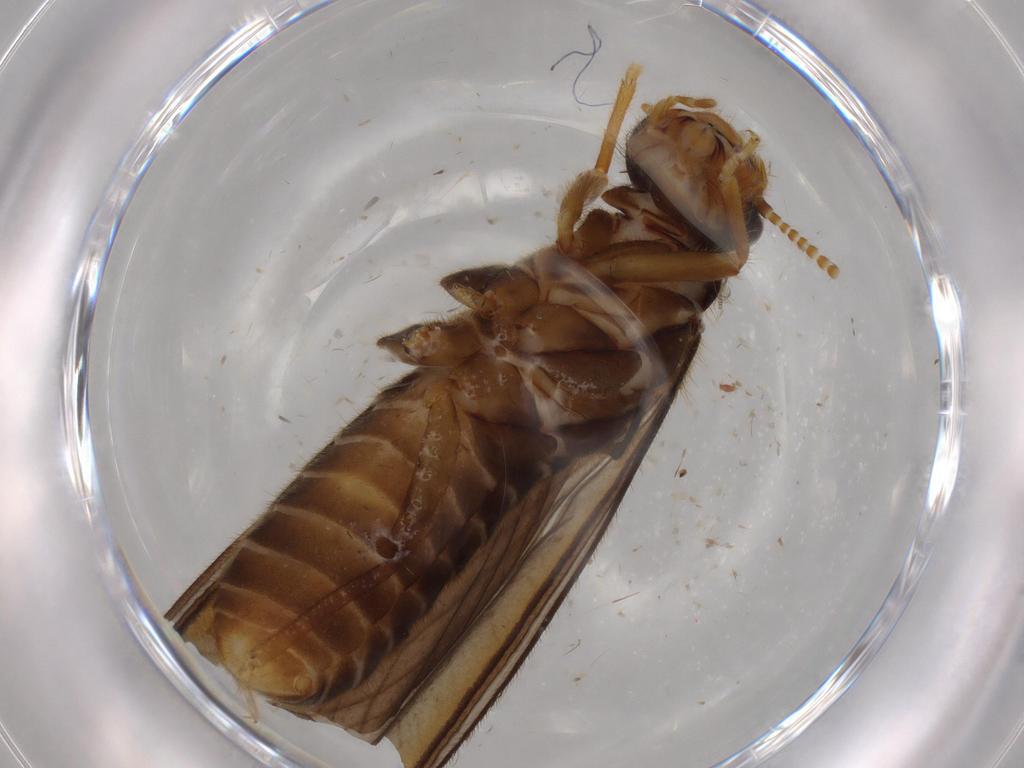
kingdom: Animalia
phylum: Arthropoda
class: Insecta
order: Blattodea
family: Termitidae
